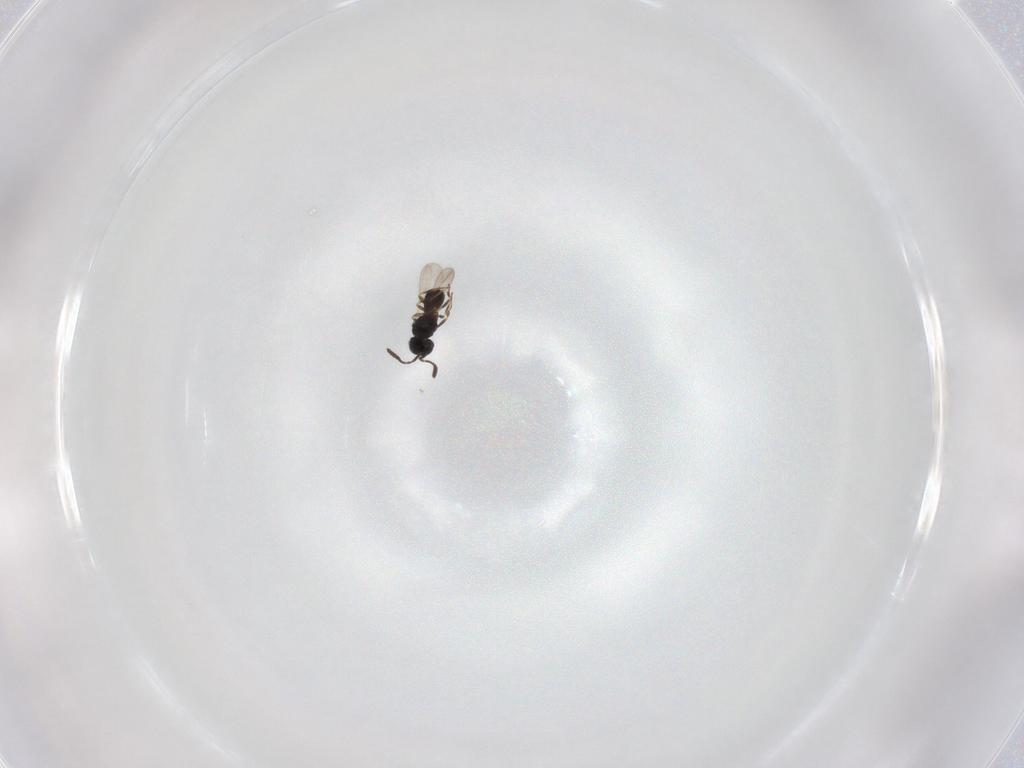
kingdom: Animalia
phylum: Arthropoda
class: Insecta
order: Hymenoptera
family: Scelionidae
